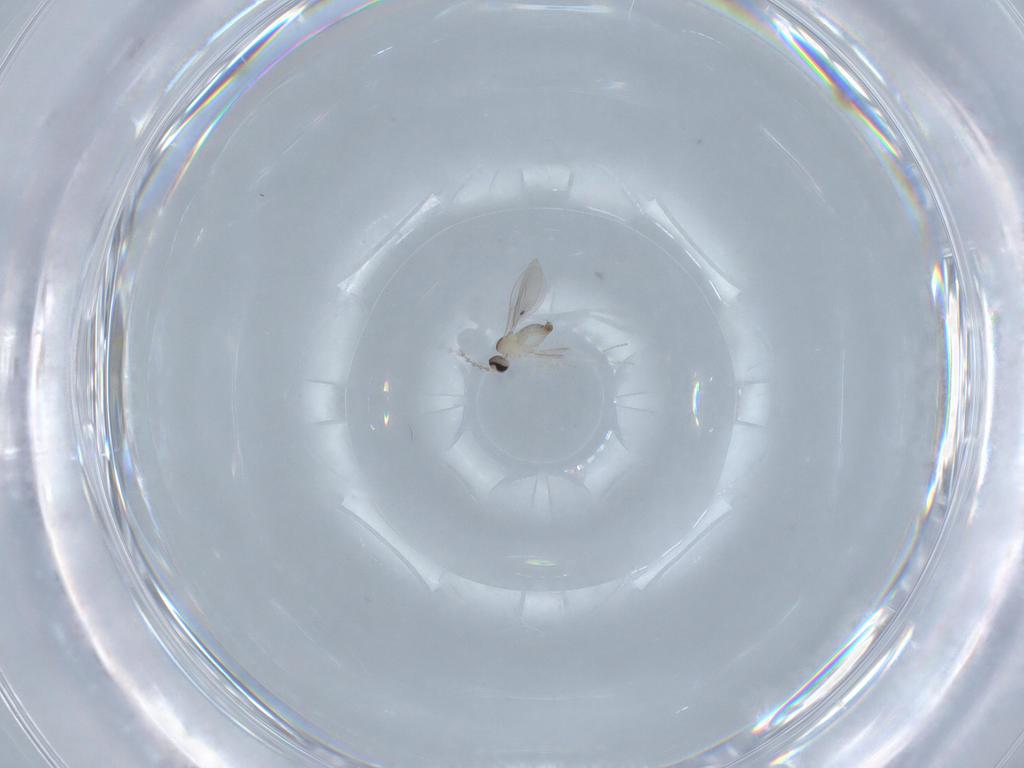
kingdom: Animalia
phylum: Arthropoda
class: Insecta
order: Diptera
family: Cecidomyiidae
